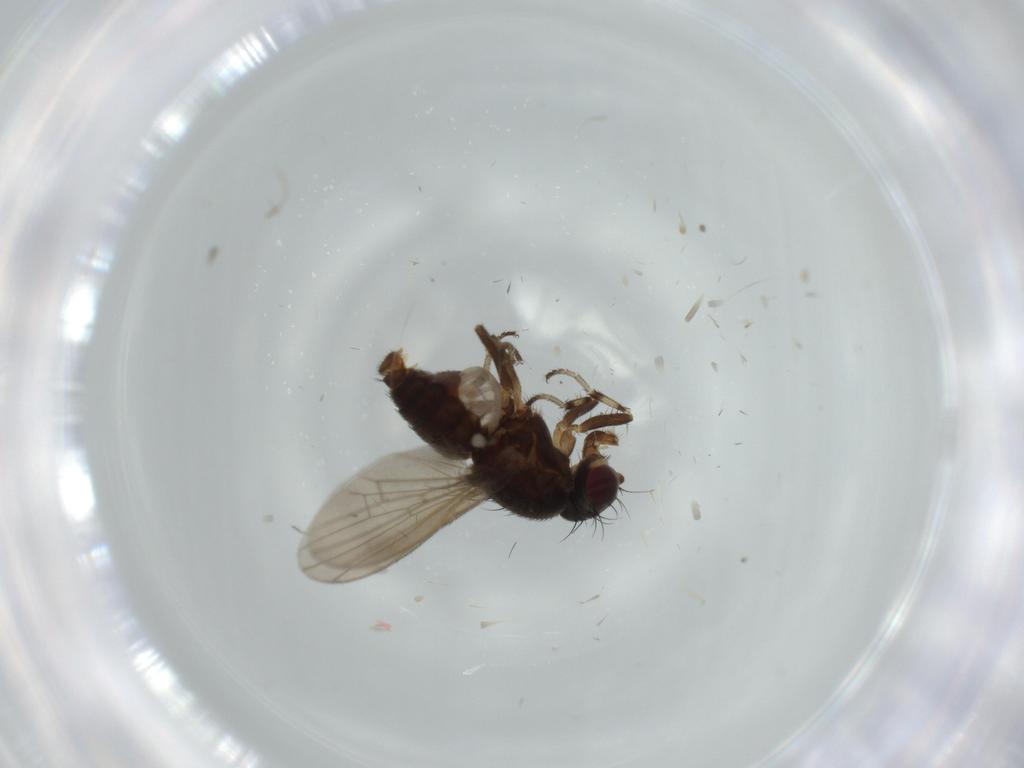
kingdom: Animalia
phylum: Arthropoda
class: Insecta
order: Diptera
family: Heleomyzidae
